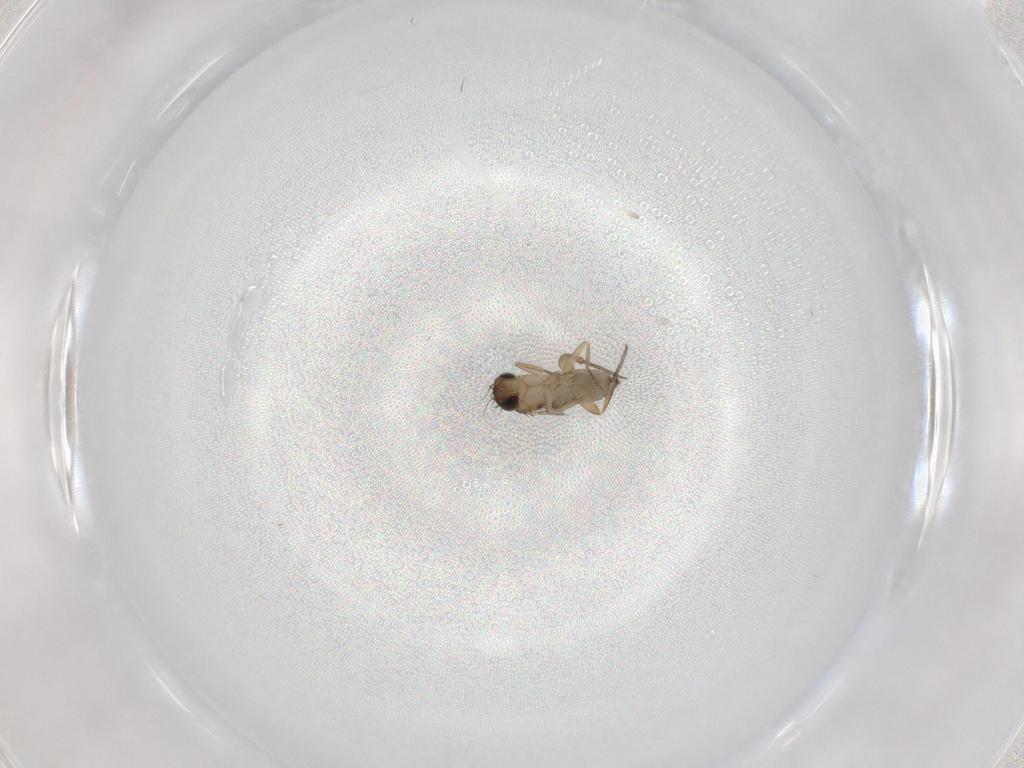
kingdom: Animalia
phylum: Arthropoda
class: Insecta
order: Diptera
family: Phoridae
